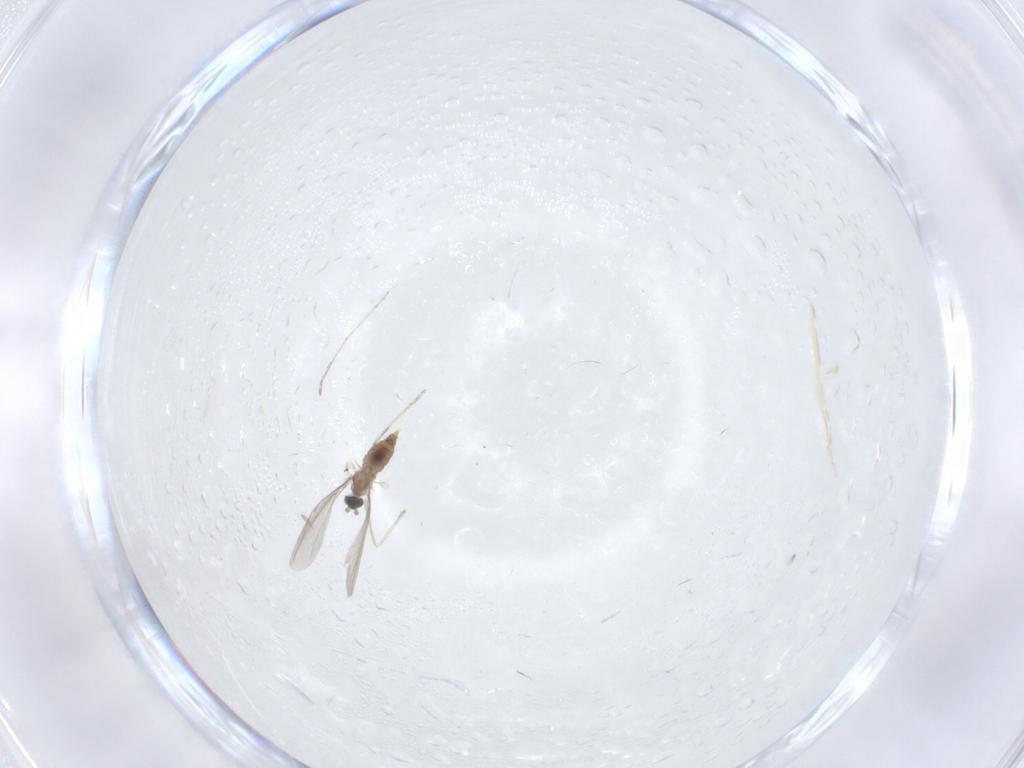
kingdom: Animalia
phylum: Arthropoda
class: Insecta
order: Diptera
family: Cecidomyiidae
